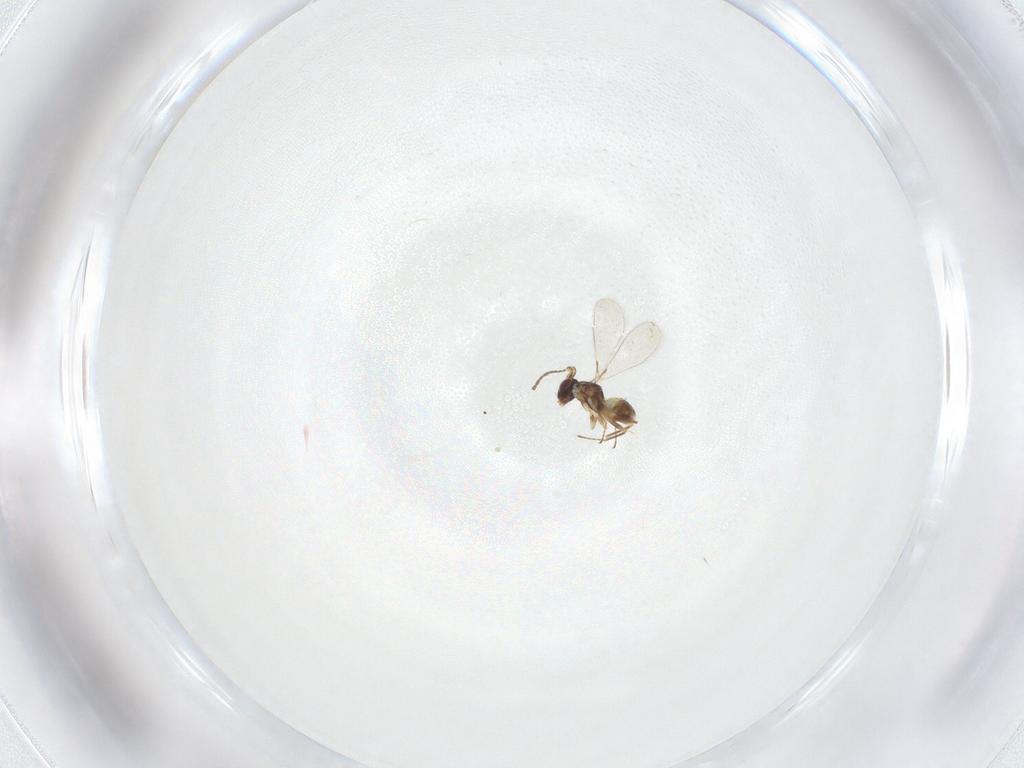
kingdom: Animalia
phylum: Arthropoda
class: Insecta
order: Hymenoptera
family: Mymaridae
